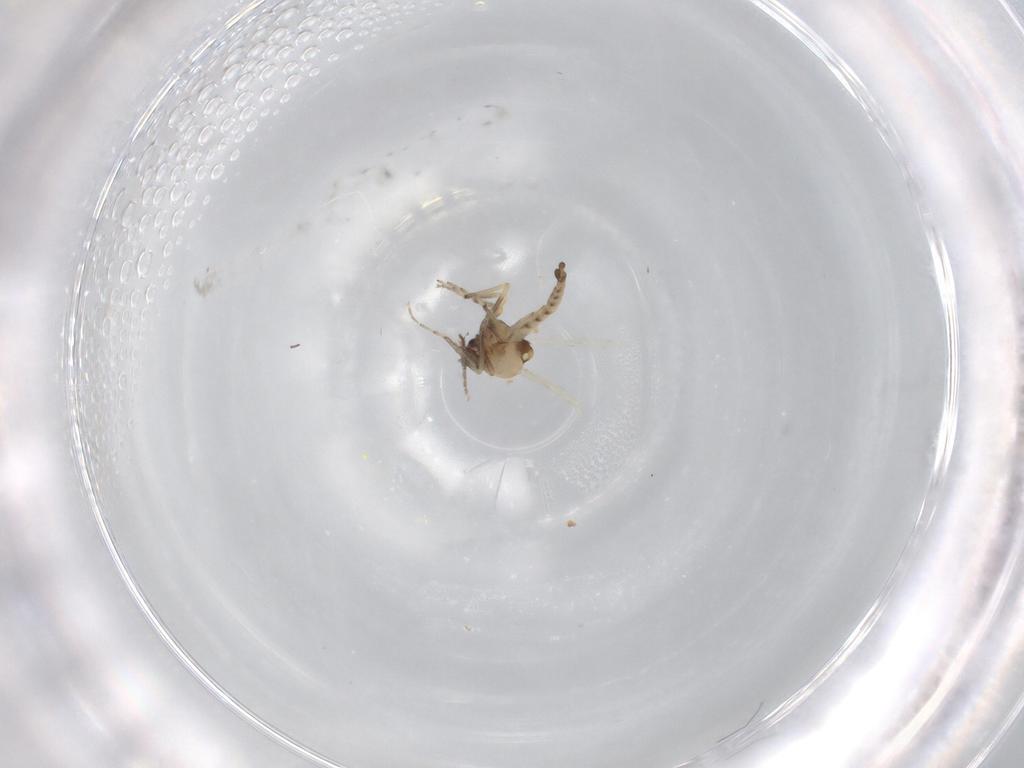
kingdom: Animalia
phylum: Arthropoda
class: Insecta
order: Diptera
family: Ceratopogonidae
